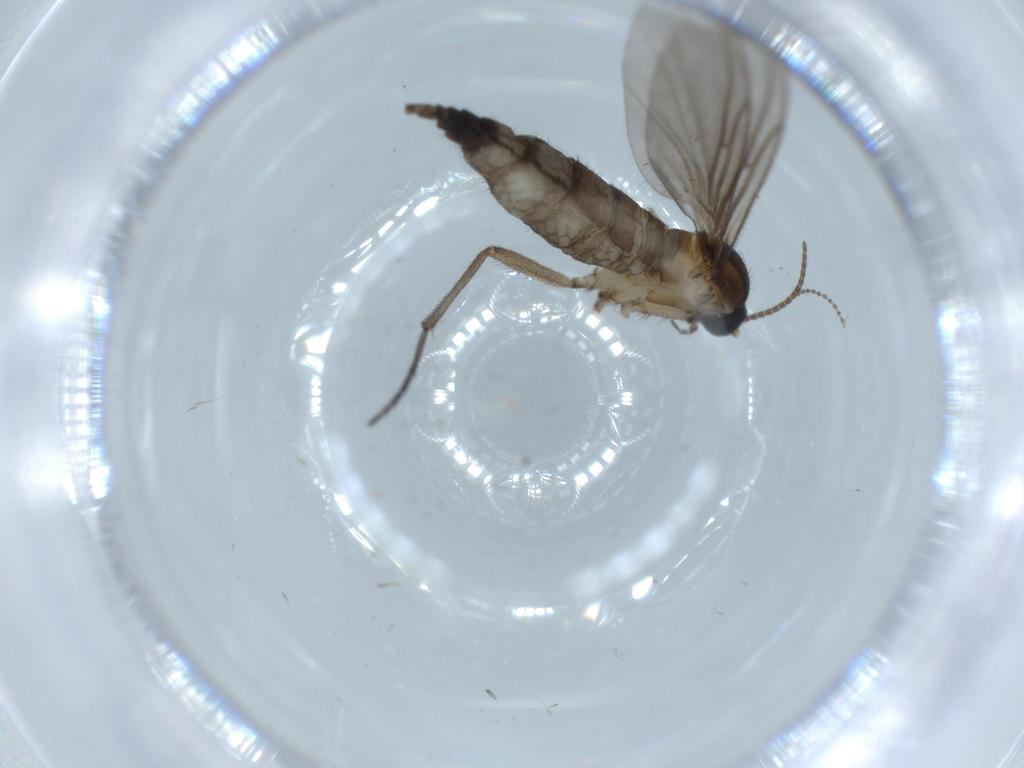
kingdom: Animalia
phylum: Arthropoda
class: Insecta
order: Diptera
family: Sciaridae
